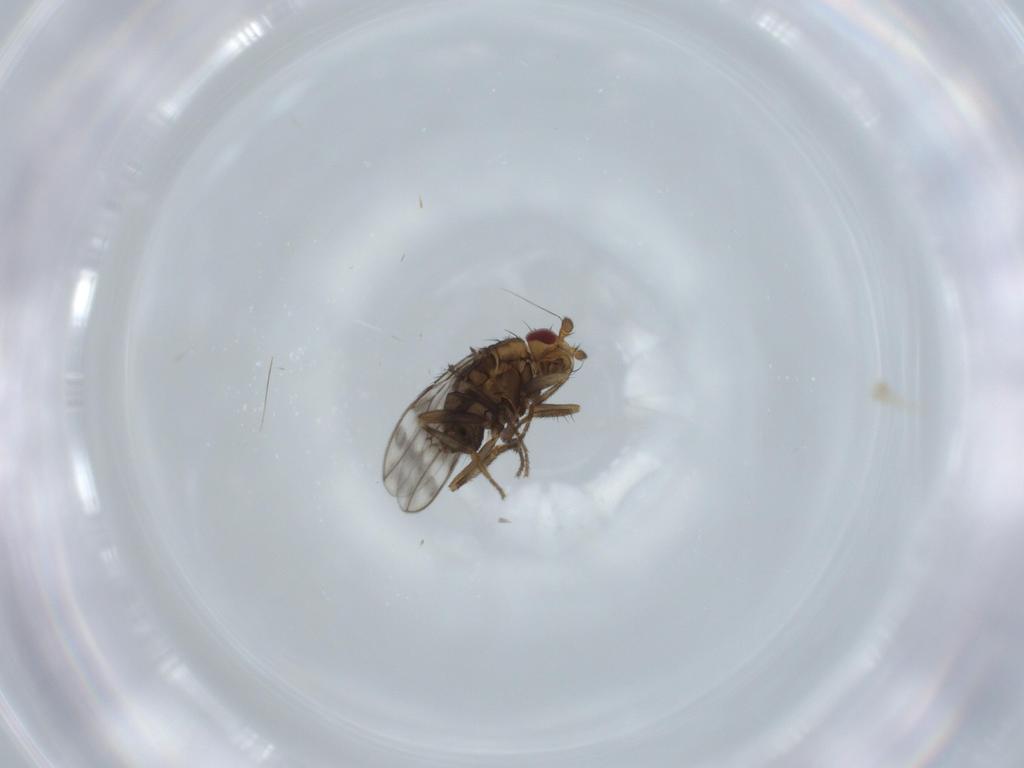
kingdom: Animalia
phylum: Arthropoda
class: Insecta
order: Diptera
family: Sphaeroceridae
